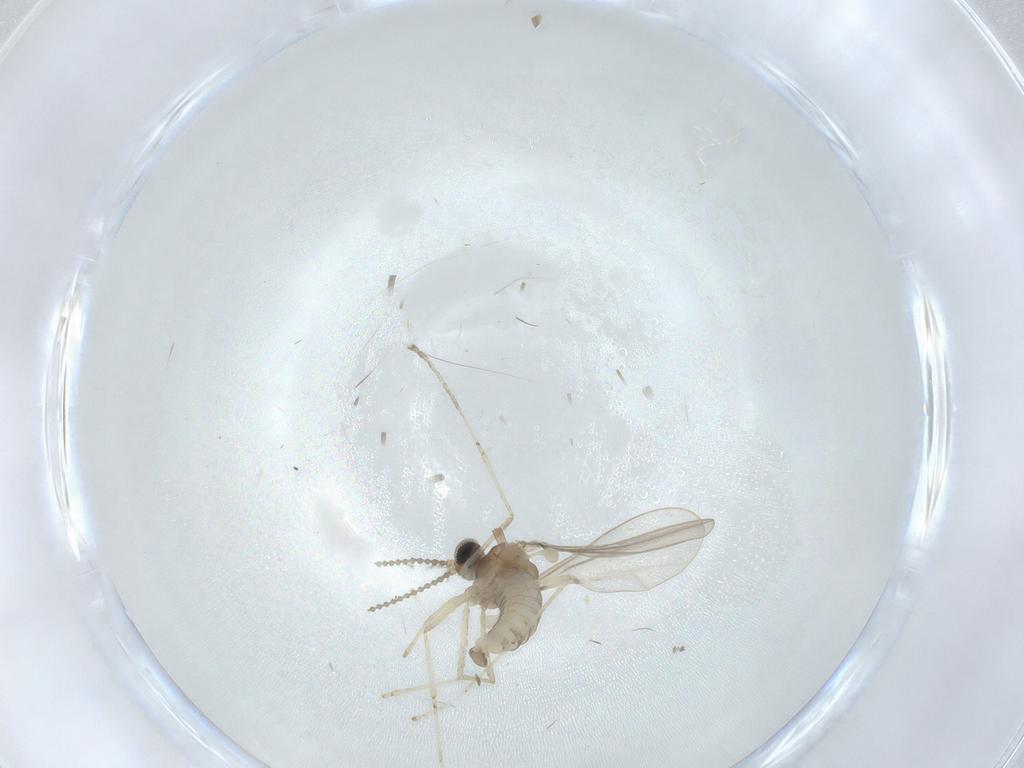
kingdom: Animalia
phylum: Arthropoda
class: Insecta
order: Diptera
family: Cecidomyiidae
